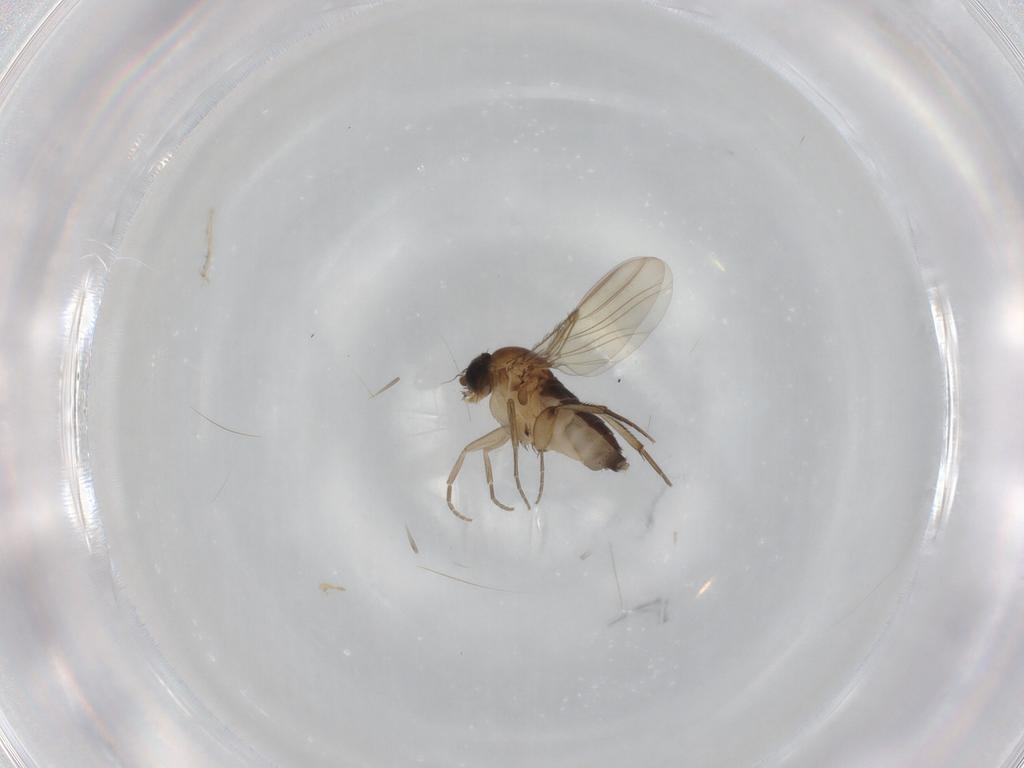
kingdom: Animalia
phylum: Arthropoda
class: Insecta
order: Diptera
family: Phoridae
